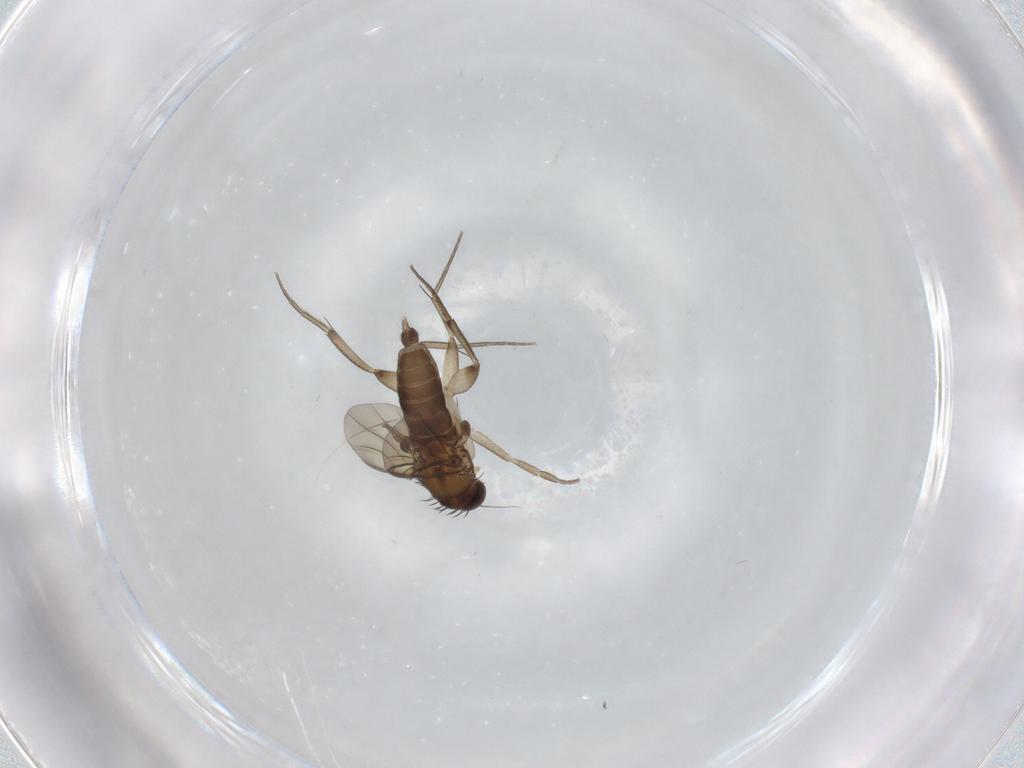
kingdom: Animalia
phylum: Arthropoda
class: Insecta
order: Diptera
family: Phoridae
